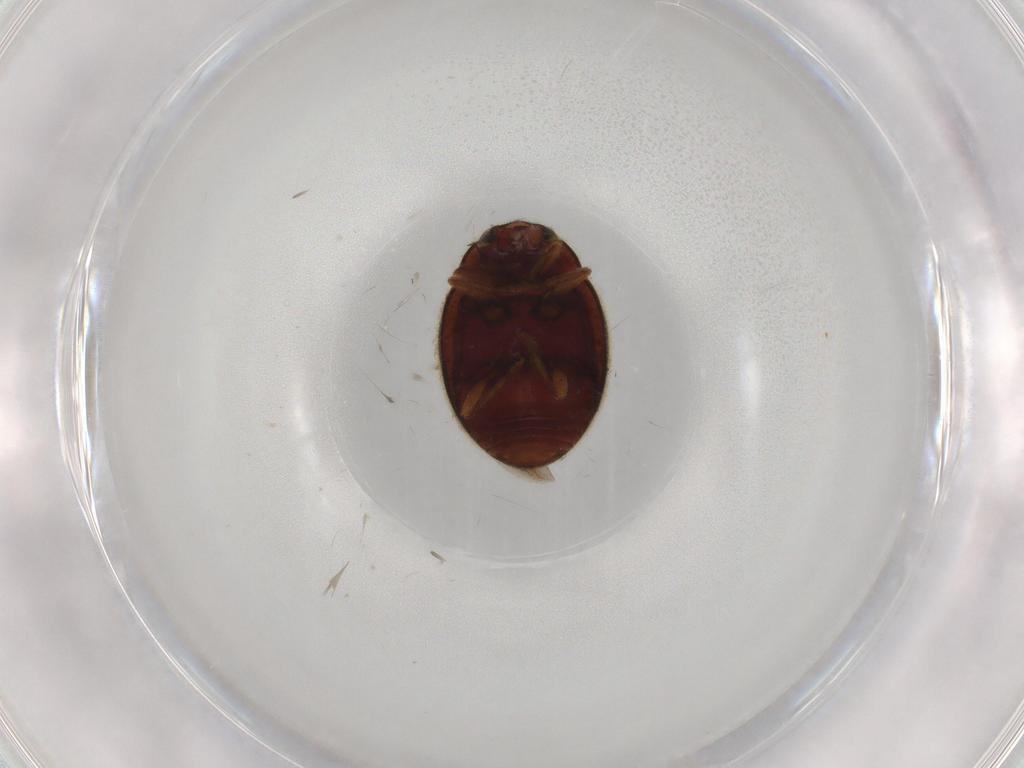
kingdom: Animalia
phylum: Arthropoda
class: Insecta
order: Coleoptera
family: Coccinellidae
